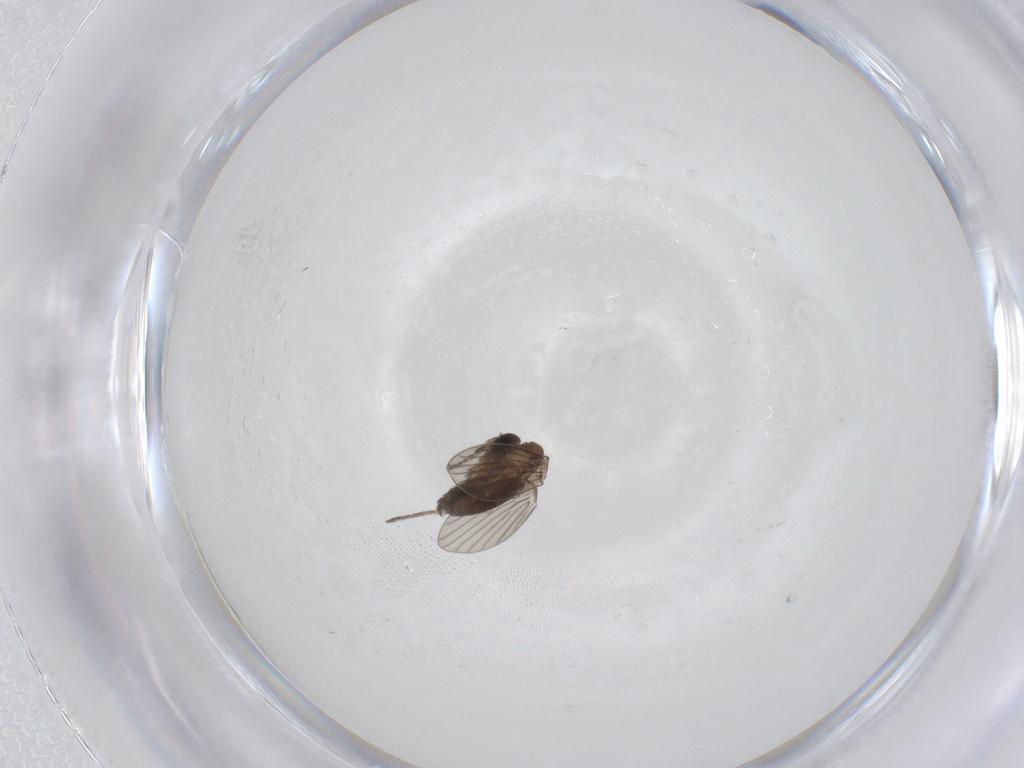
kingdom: Animalia
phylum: Arthropoda
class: Insecta
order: Diptera
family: Psychodidae
